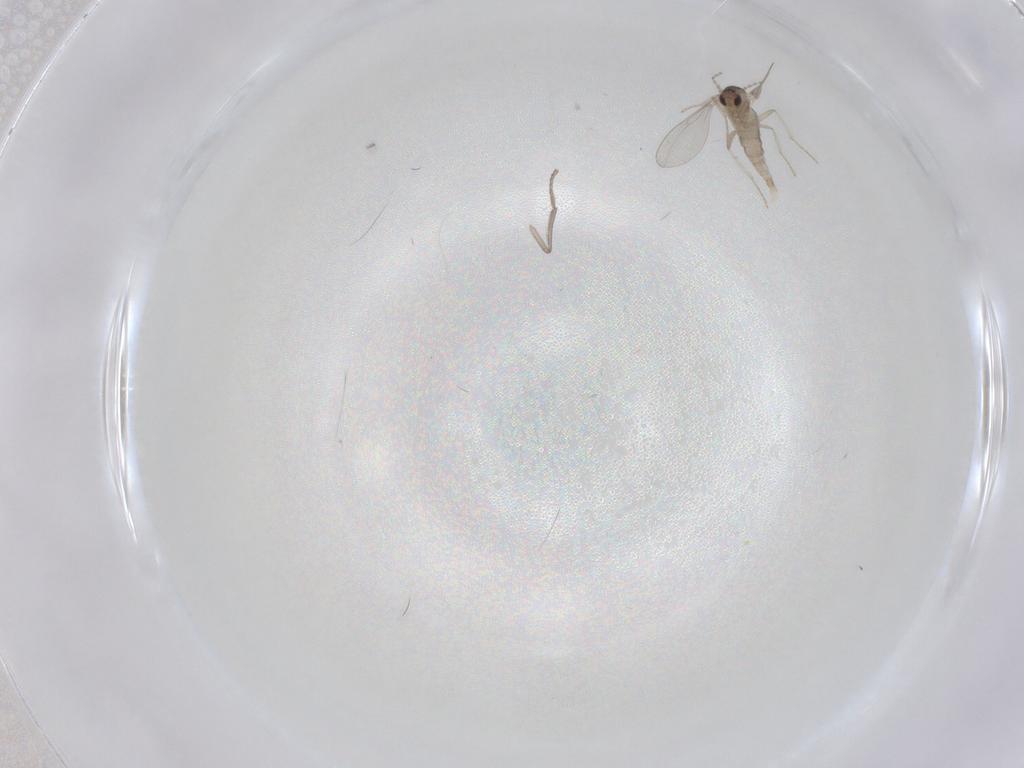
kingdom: Animalia
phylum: Arthropoda
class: Insecta
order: Diptera
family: Cecidomyiidae
